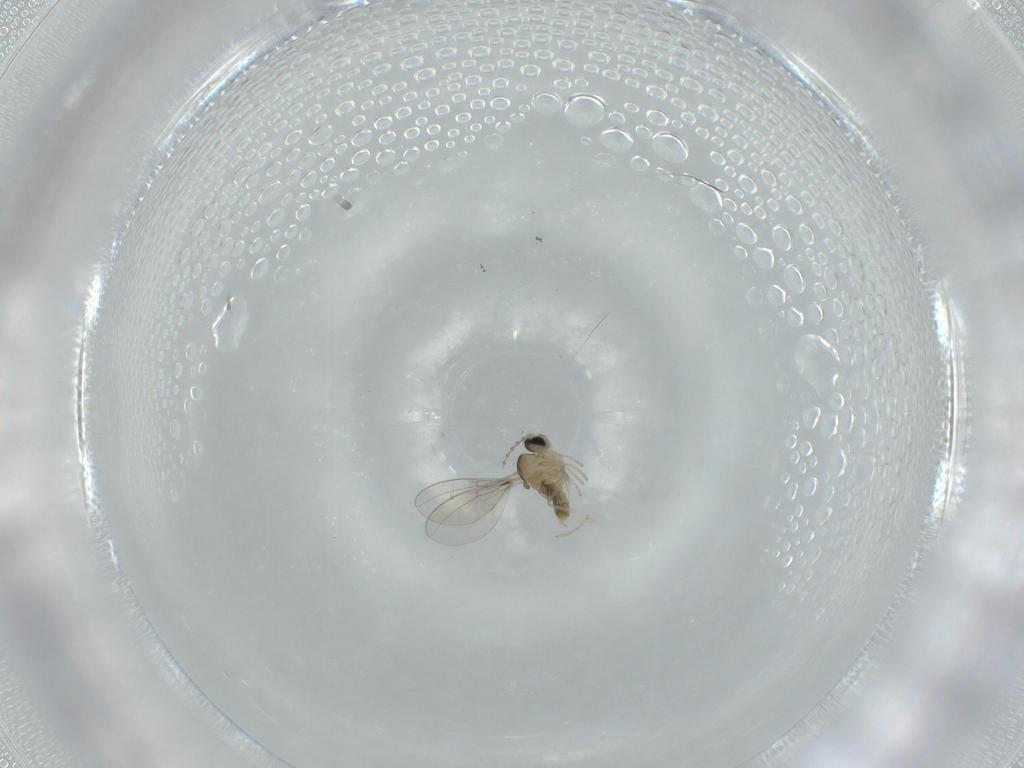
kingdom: Animalia
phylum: Arthropoda
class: Insecta
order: Diptera
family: Cecidomyiidae
